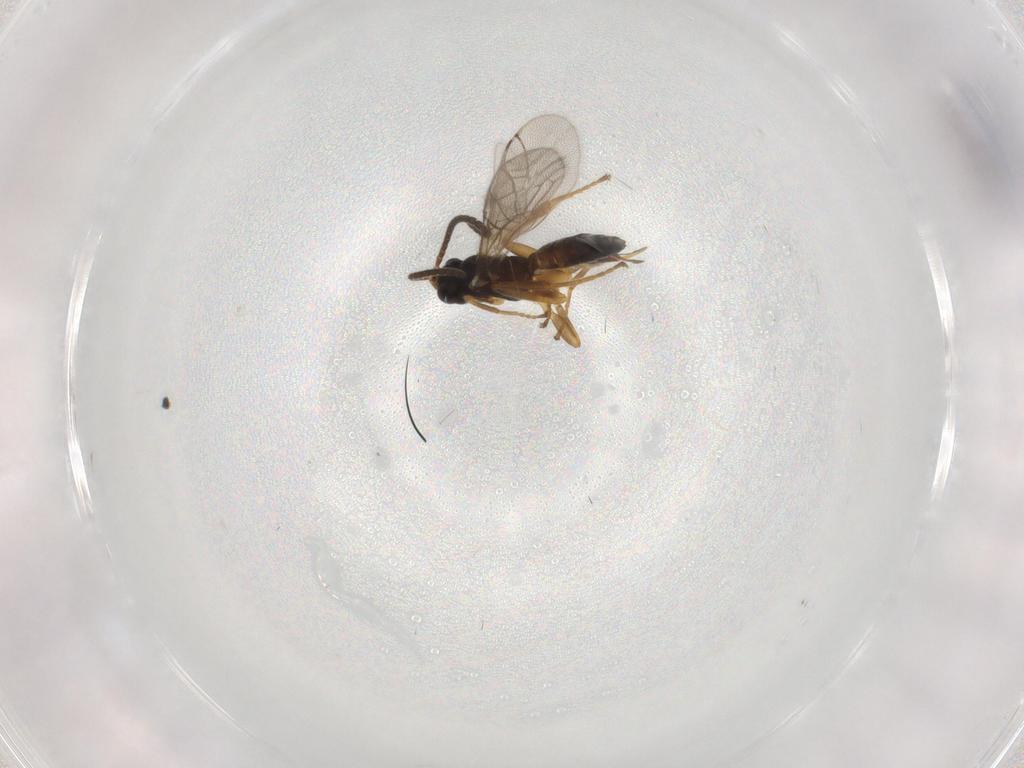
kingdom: Animalia
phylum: Arthropoda
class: Insecta
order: Hymenoptera
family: Ichneumonidae
